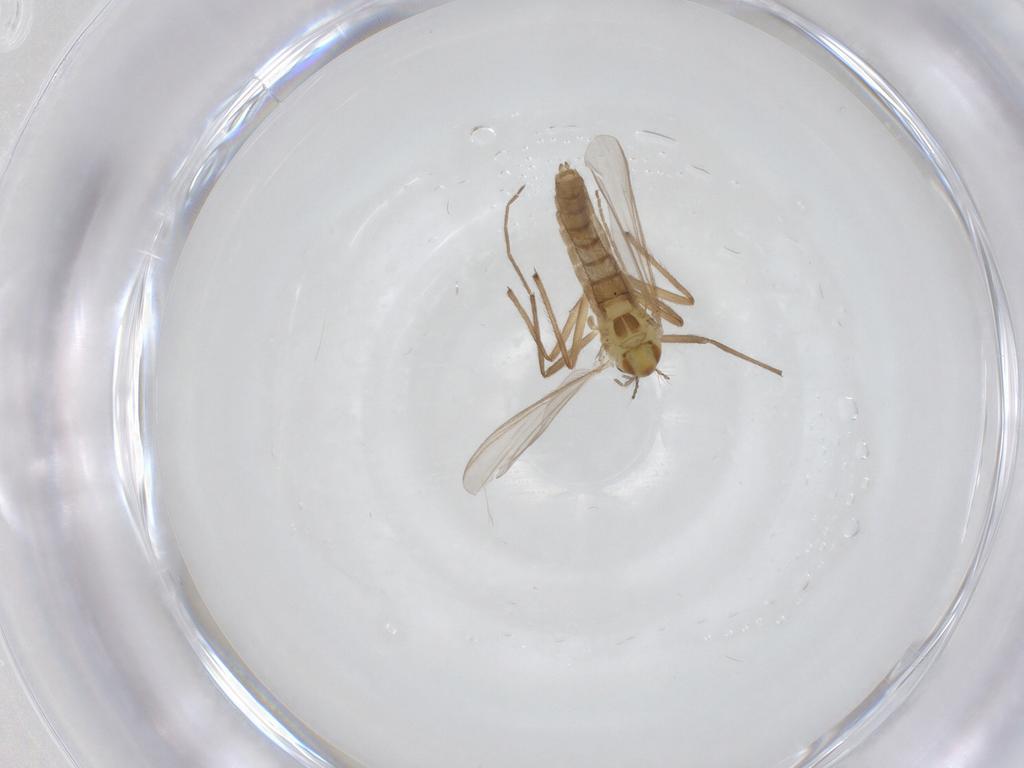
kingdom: Animalia
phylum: Arthropoda
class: Insecta
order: Diptera
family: Chironomidae
